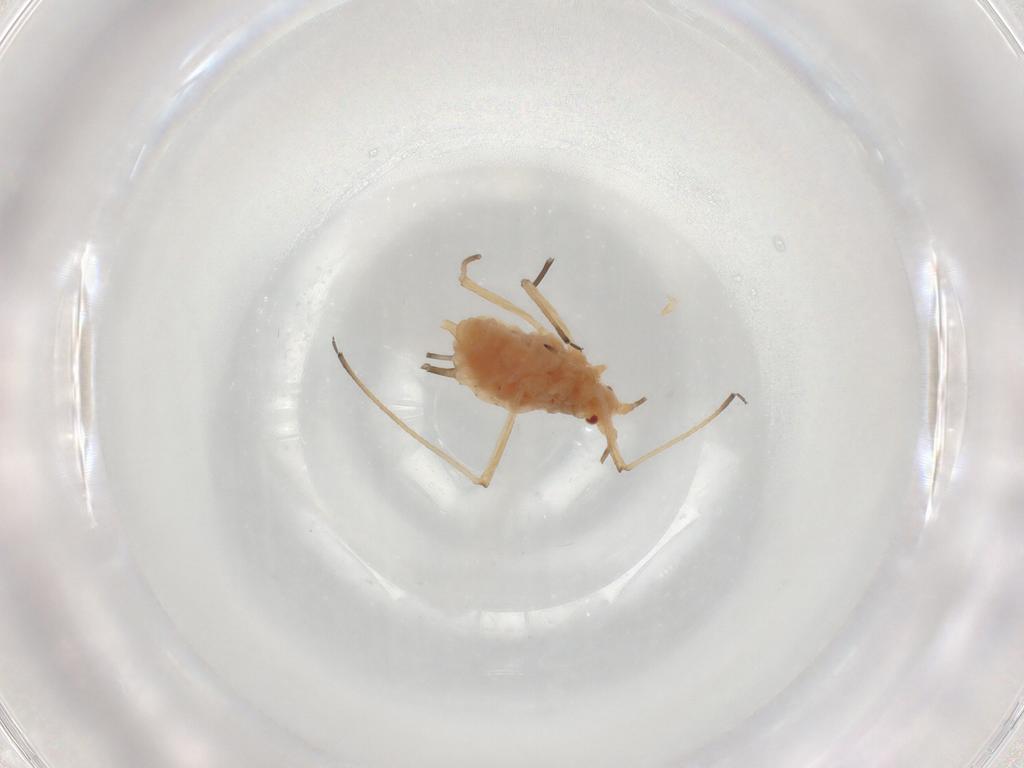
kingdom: Animalia
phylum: Arthropoda
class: Insecta
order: Hemiptera
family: Aphididae
